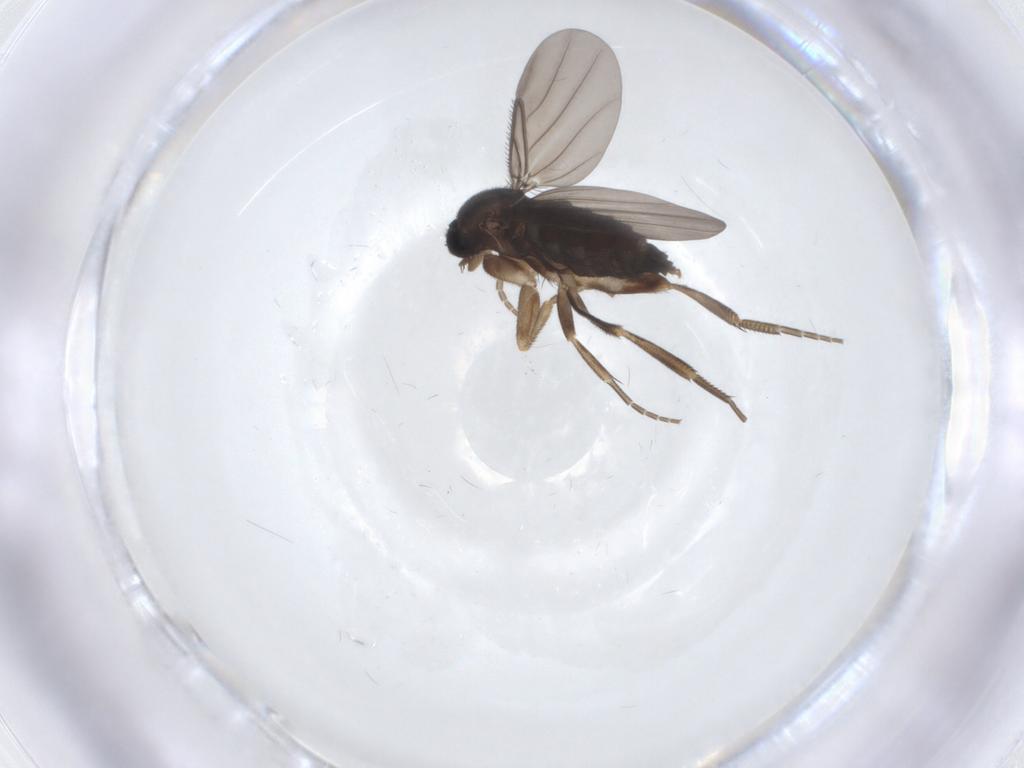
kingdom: Animalia
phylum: Arthropoda
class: Insecta
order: Diptera
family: Phoridae
